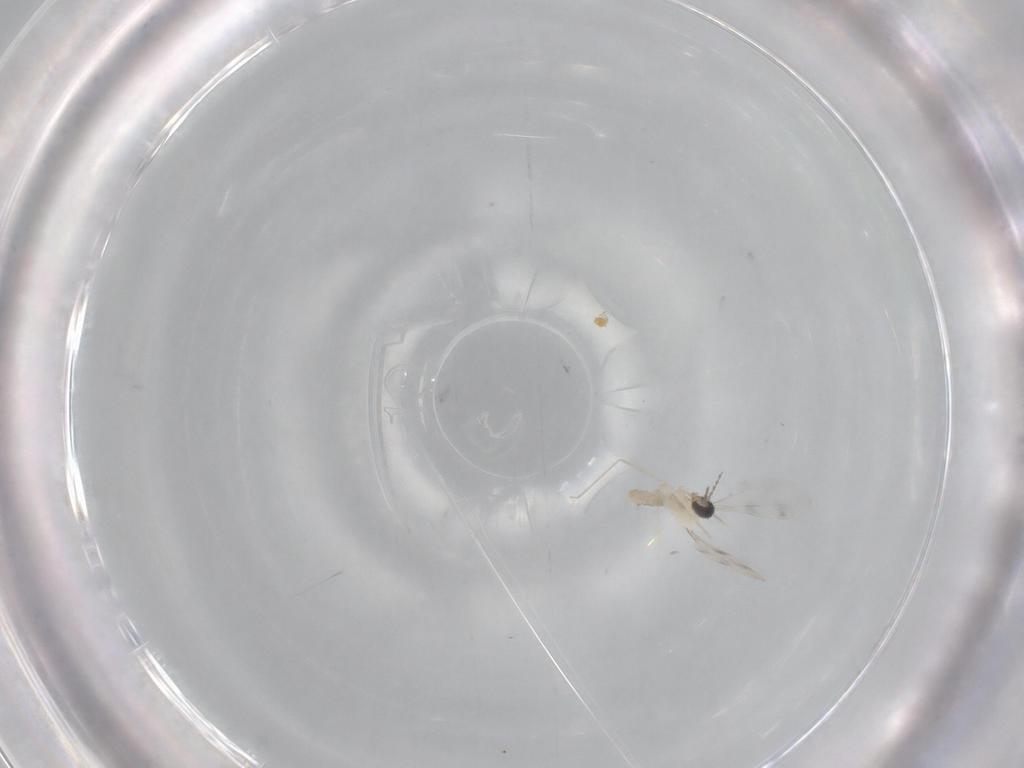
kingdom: Animalia
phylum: Arthropoda
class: Insecta
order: Diptera
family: Cecidomyiidae
